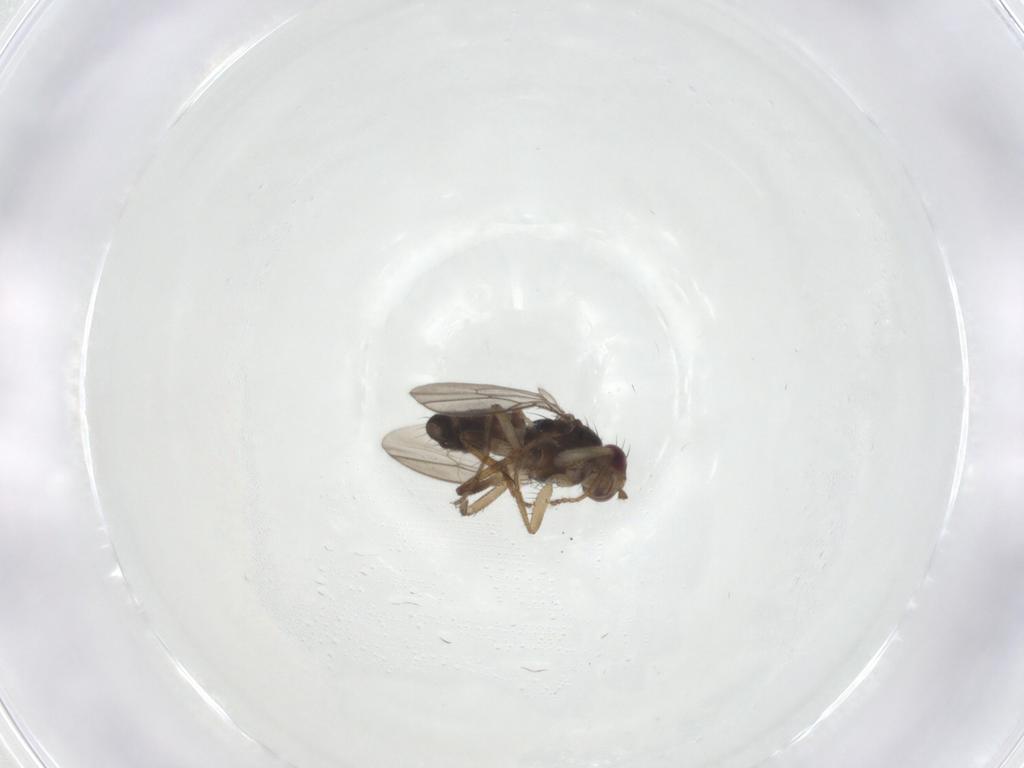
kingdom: Animalia
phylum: Arthropoda
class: Insecta
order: Diptera
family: Sphaeroceridae
